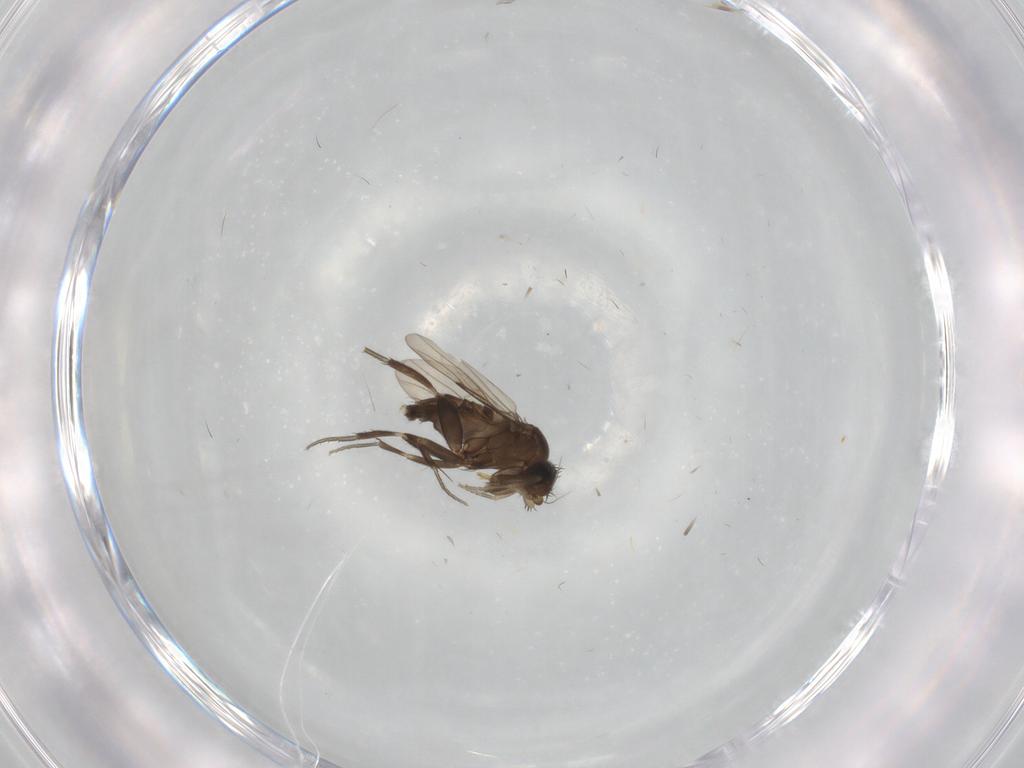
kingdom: Animalia
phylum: Arthropoda
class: Insecta
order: Diptera
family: Phoridae
